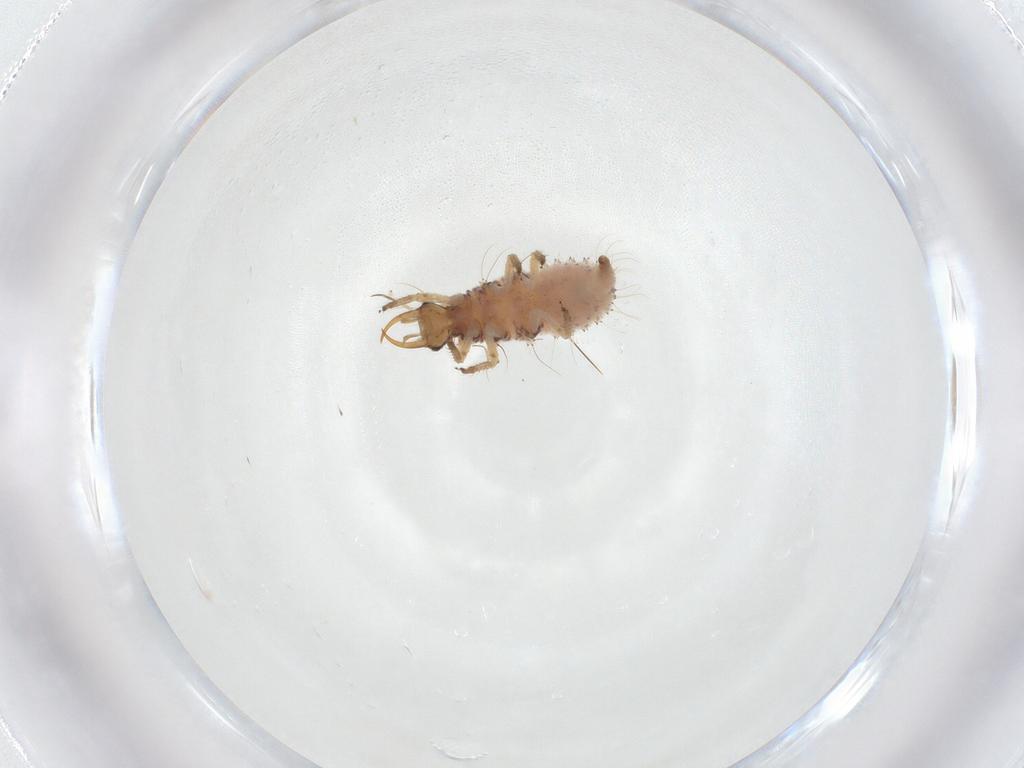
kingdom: Animalia
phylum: Arthropoda
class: Insecta
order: Neuroptera
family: Chrysopidae
